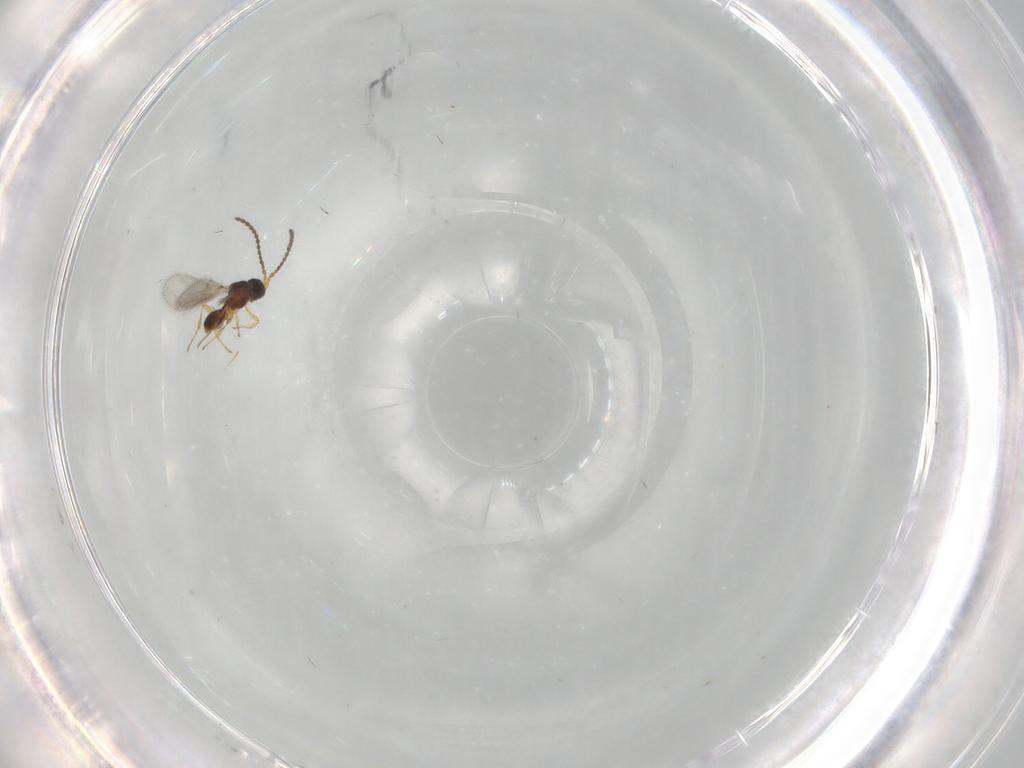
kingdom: Animalia
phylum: Arthropoda
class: Insecta
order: Hymenoptera
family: Diapriidae
